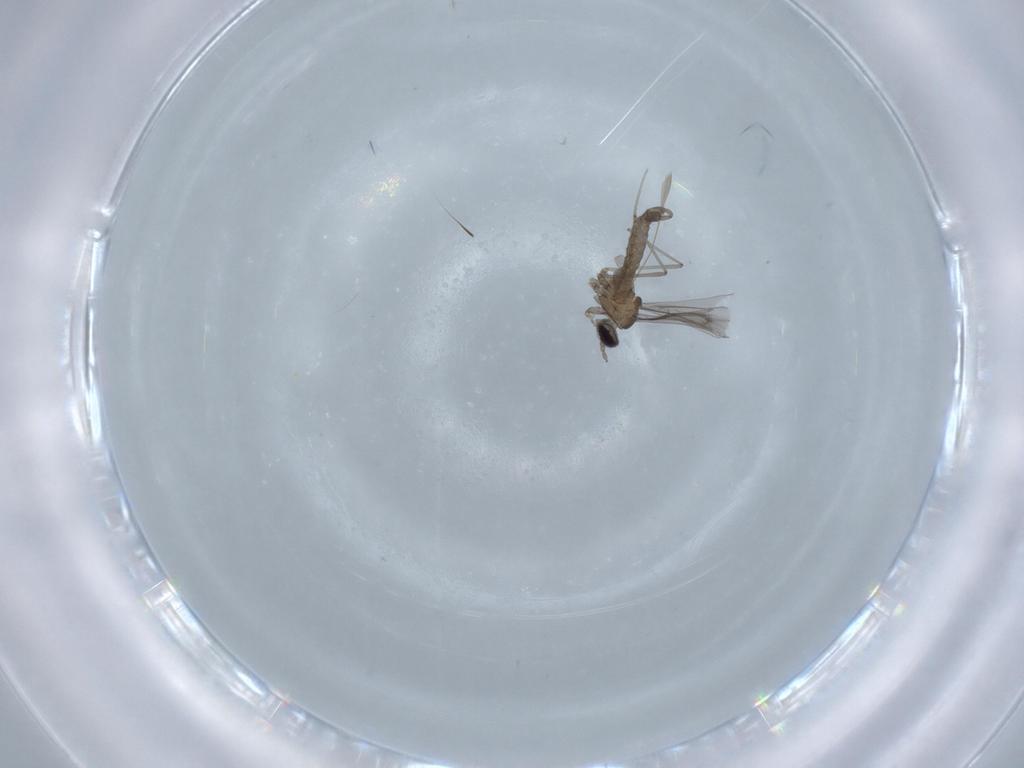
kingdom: Animalia
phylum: Arthropoda
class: Insecta
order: Diptera
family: Cecidomyiidae
